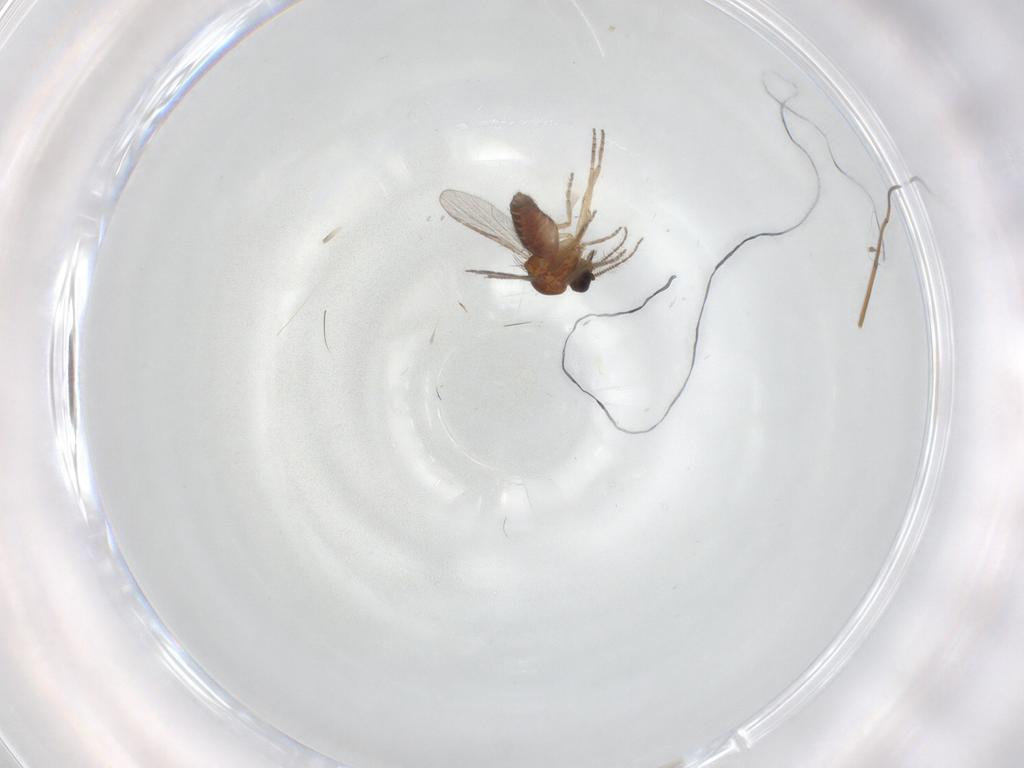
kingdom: Animalia
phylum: Arthropoda
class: Insecta
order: Diptera
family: Ceratopogonidae
